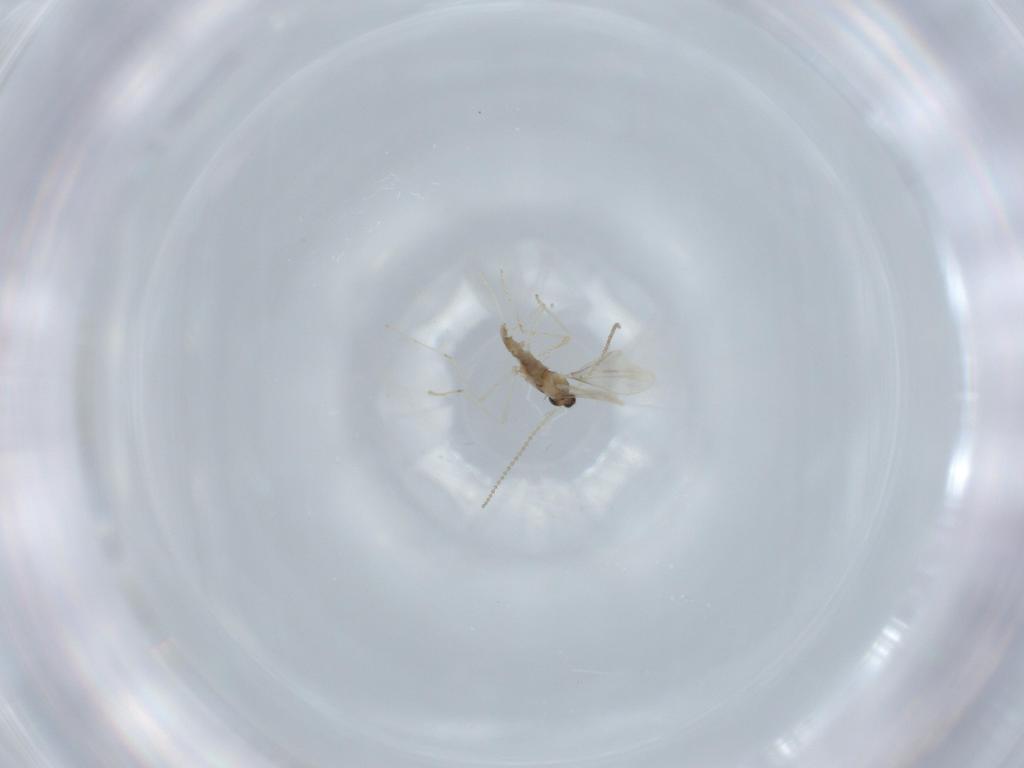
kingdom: Animalia
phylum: Arthropoda
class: Insecta
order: Diptera
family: Cecidomyiidae
